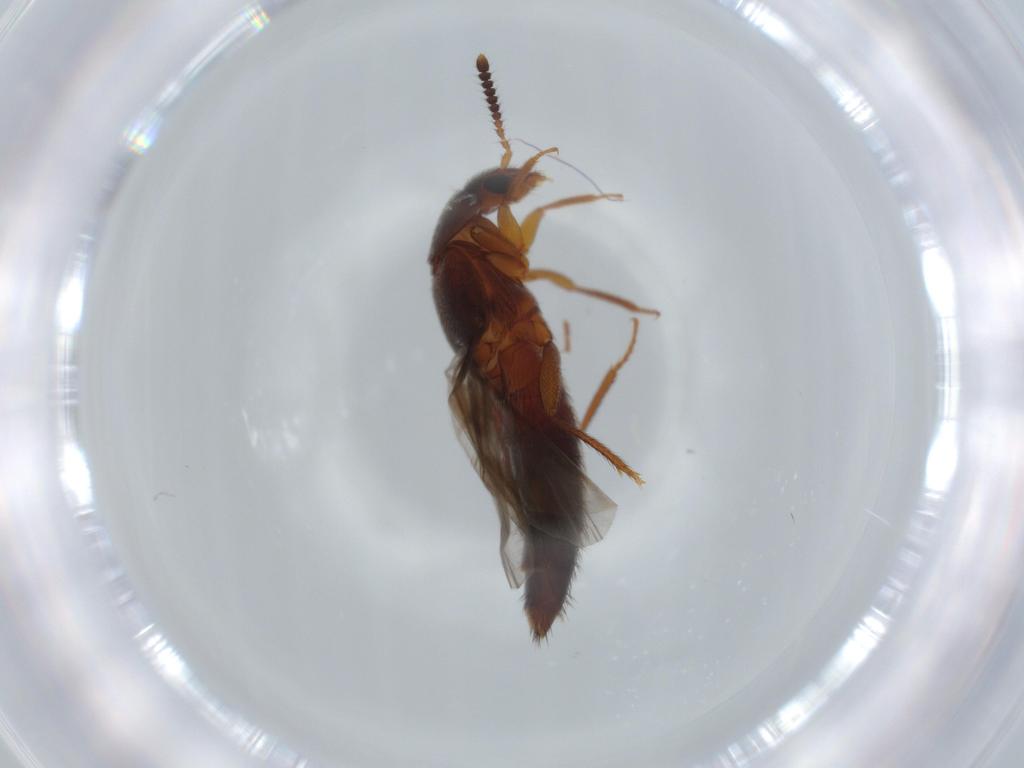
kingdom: Animalia
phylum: Arthropoda
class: Insecta
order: Coleoptera
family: Staphylinidae
